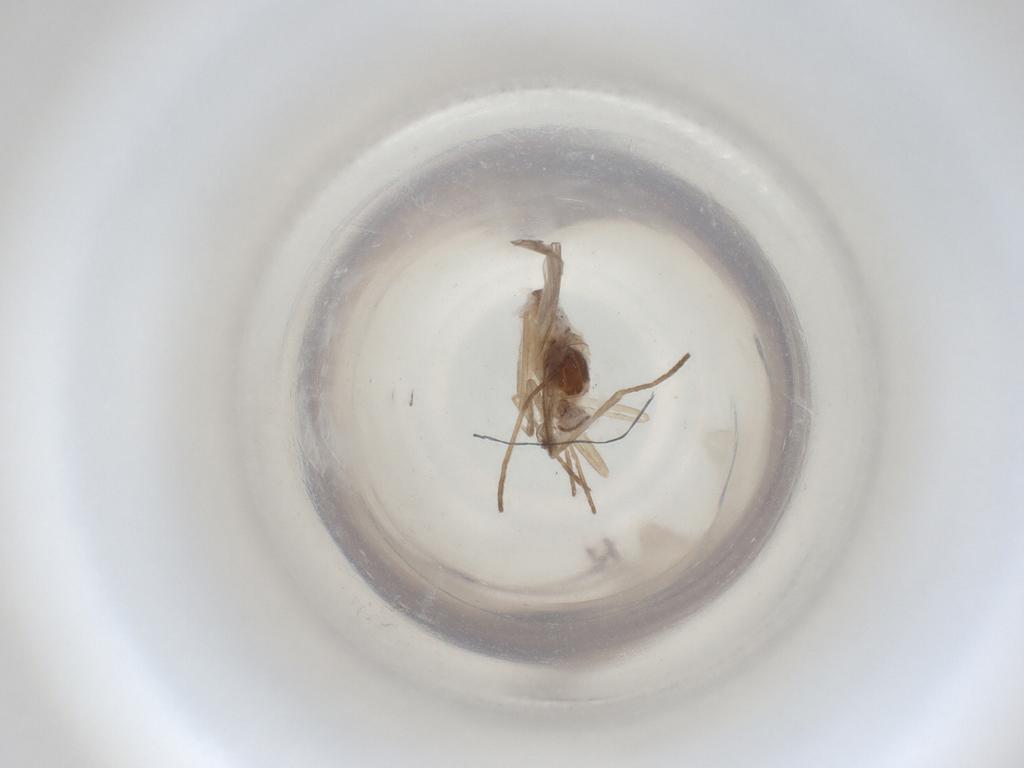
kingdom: Animalia
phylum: Arthropoda
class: Insecta
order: Diptera
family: Cecidomyiidae
